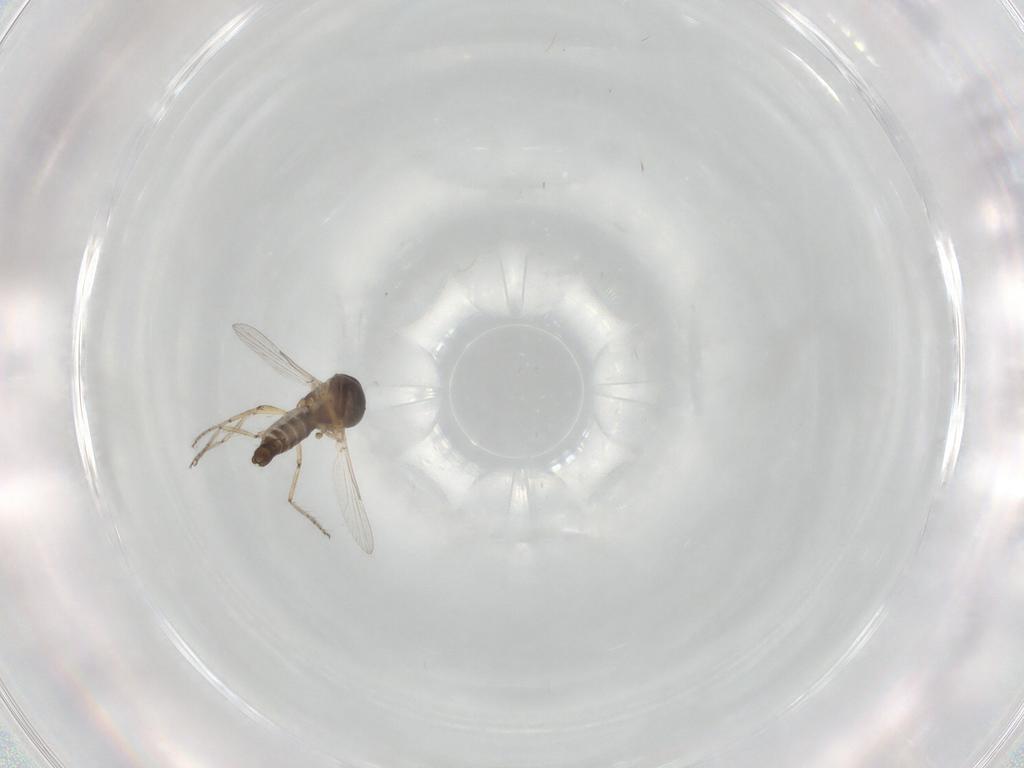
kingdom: Animalia
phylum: Arthropoda
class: Insecta
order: Diptera
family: Ceratopogonidae
